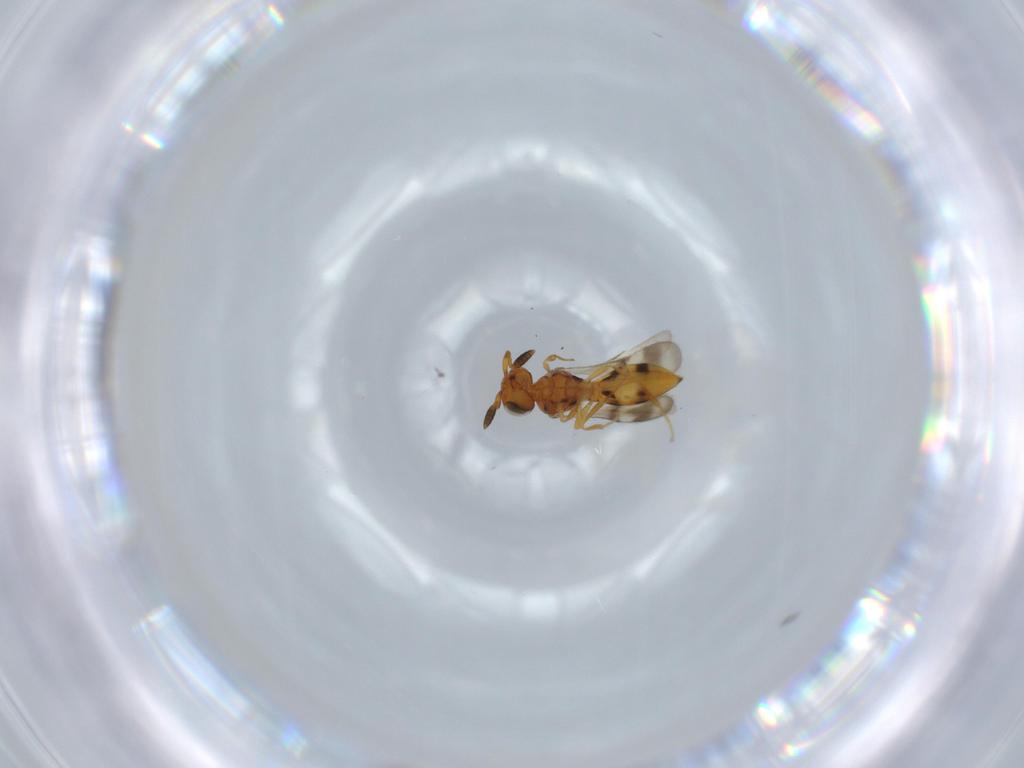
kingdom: Animalia
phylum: Arthropoda
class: Insecta
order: Hymenoptera
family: Scelionidae
